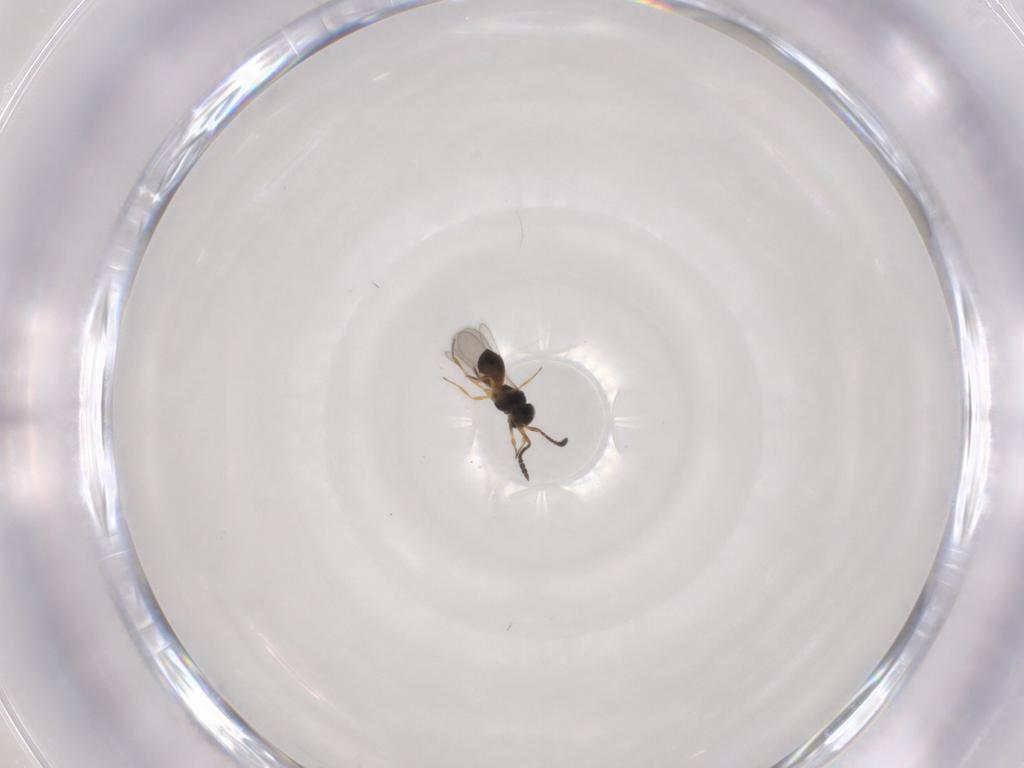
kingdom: Animalia
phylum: Arthropoda
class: Insecta
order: Hymenoptera
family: Scelionidae
